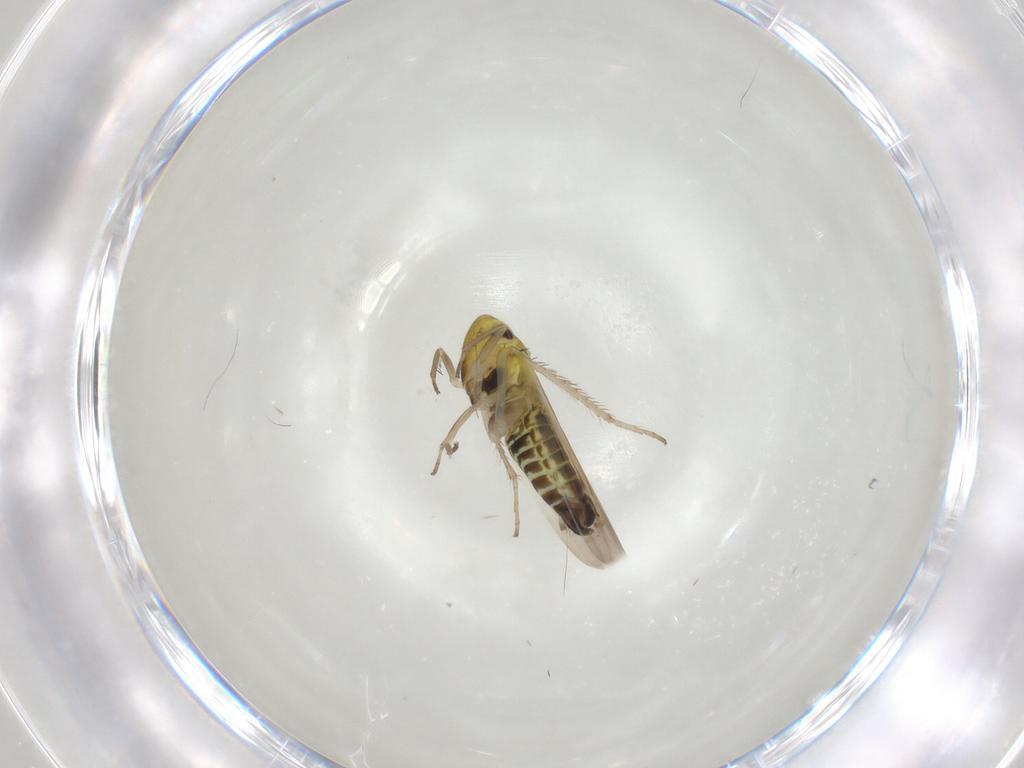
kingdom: Animalia
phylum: Arthropoda
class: Insecta
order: Hemiptera
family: Cicadellidae
